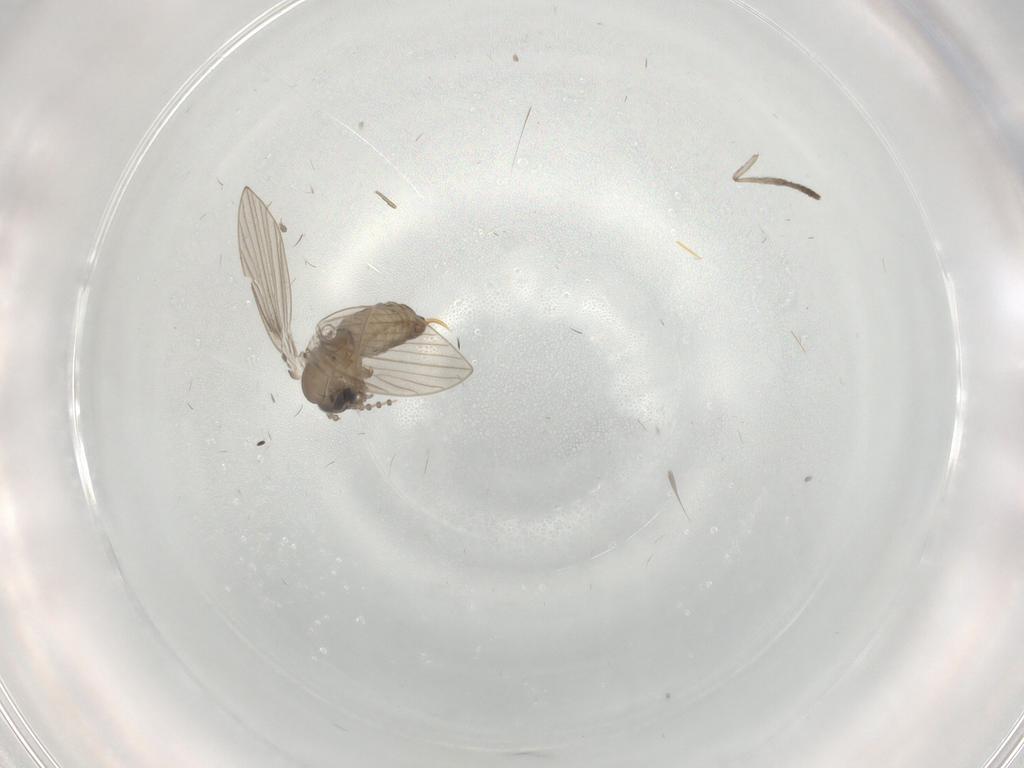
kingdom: Animalia
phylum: Arthropoda
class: Insecta
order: Diptera
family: Psychodidae
